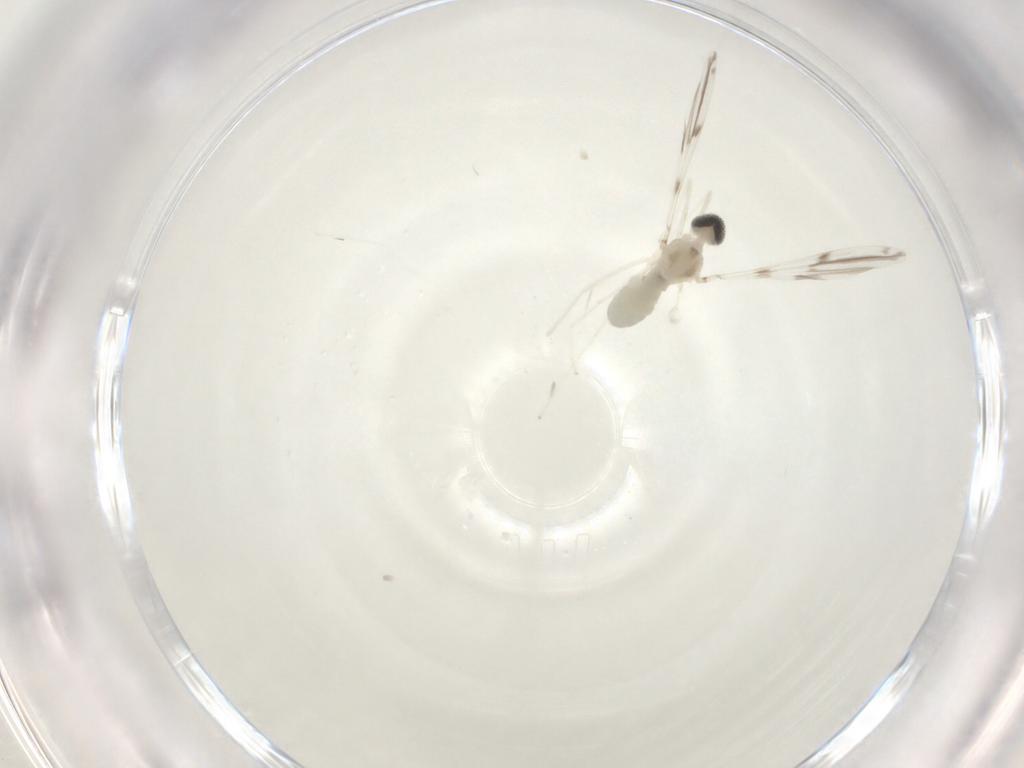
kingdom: Animalia
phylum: Arthropoda
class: Insecta
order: Diptera
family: Cecidomyiidae
